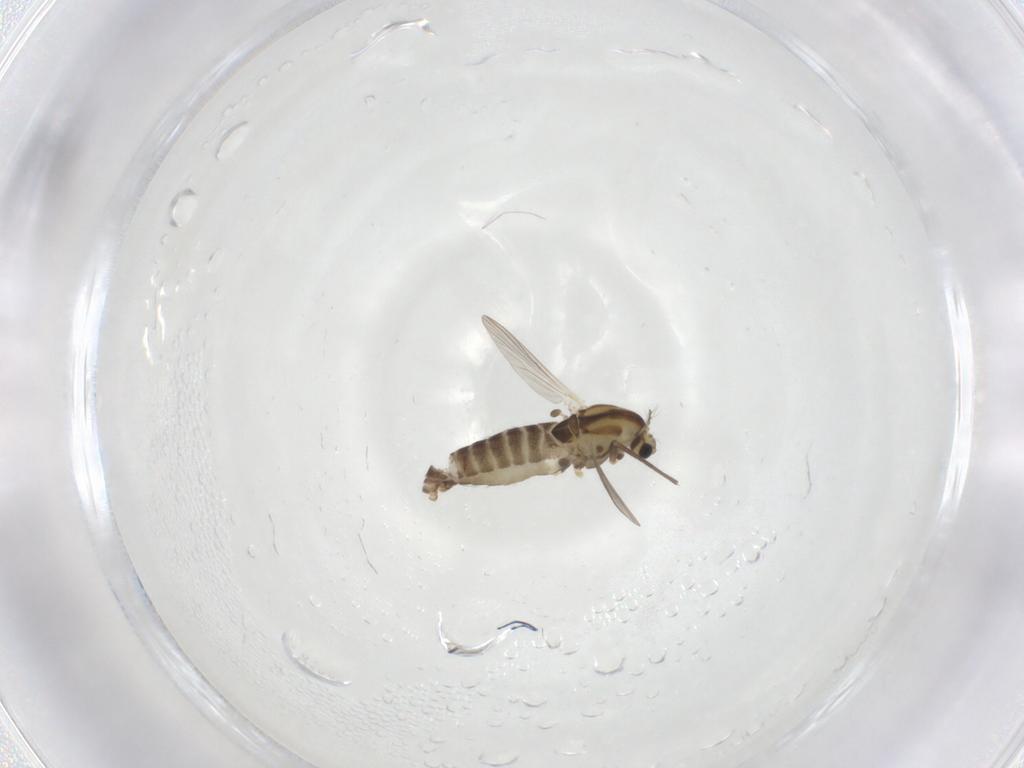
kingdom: Animalia
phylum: Arthropoda
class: Insecta
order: Diptera
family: Chironomidae
